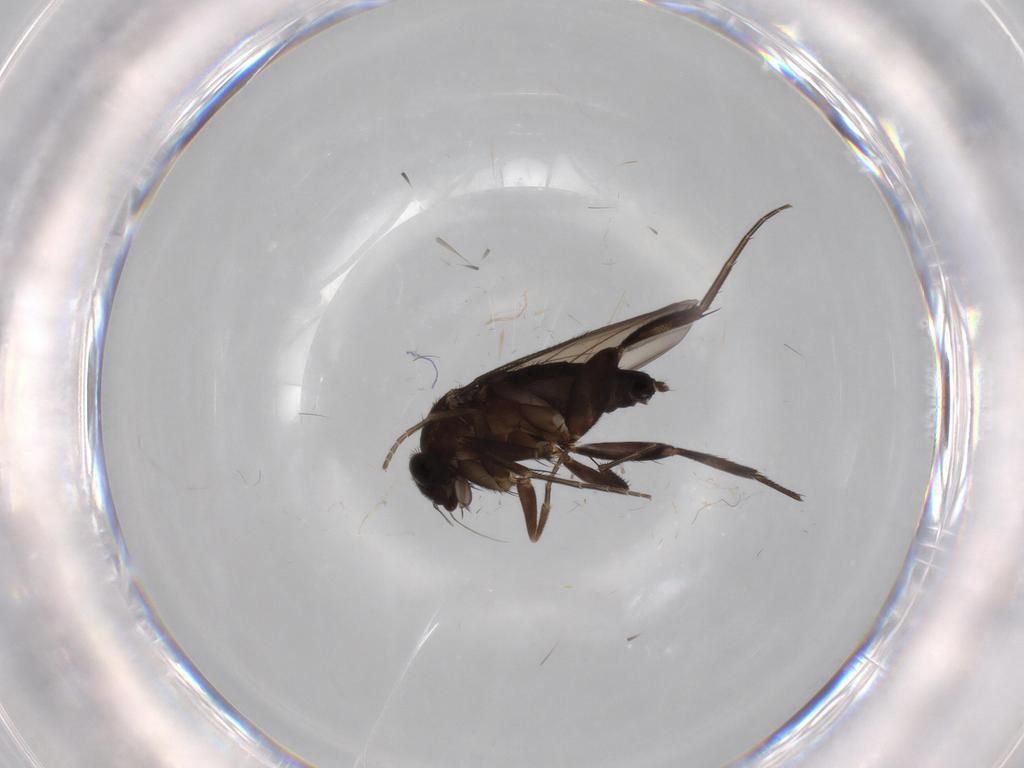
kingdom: Animalia
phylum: Arthropoda
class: Insecta
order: Diptera
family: Phoridae
